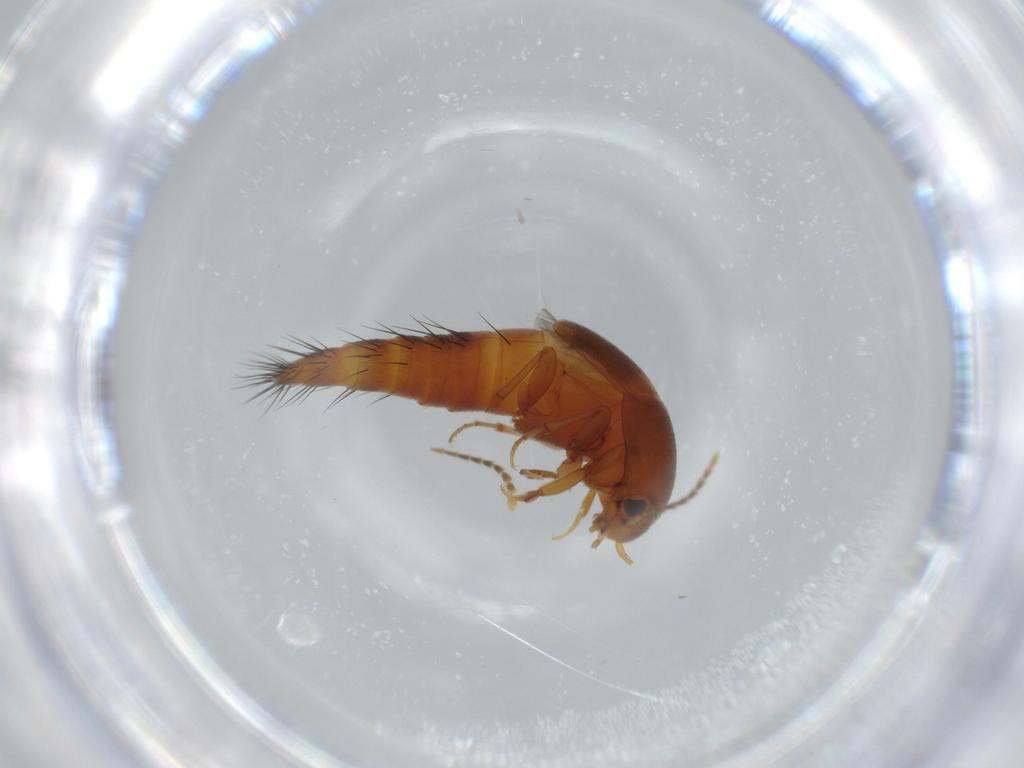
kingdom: Animalia
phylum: Arthropoda
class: Insecta
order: Coleoptera
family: Staphylinidae
